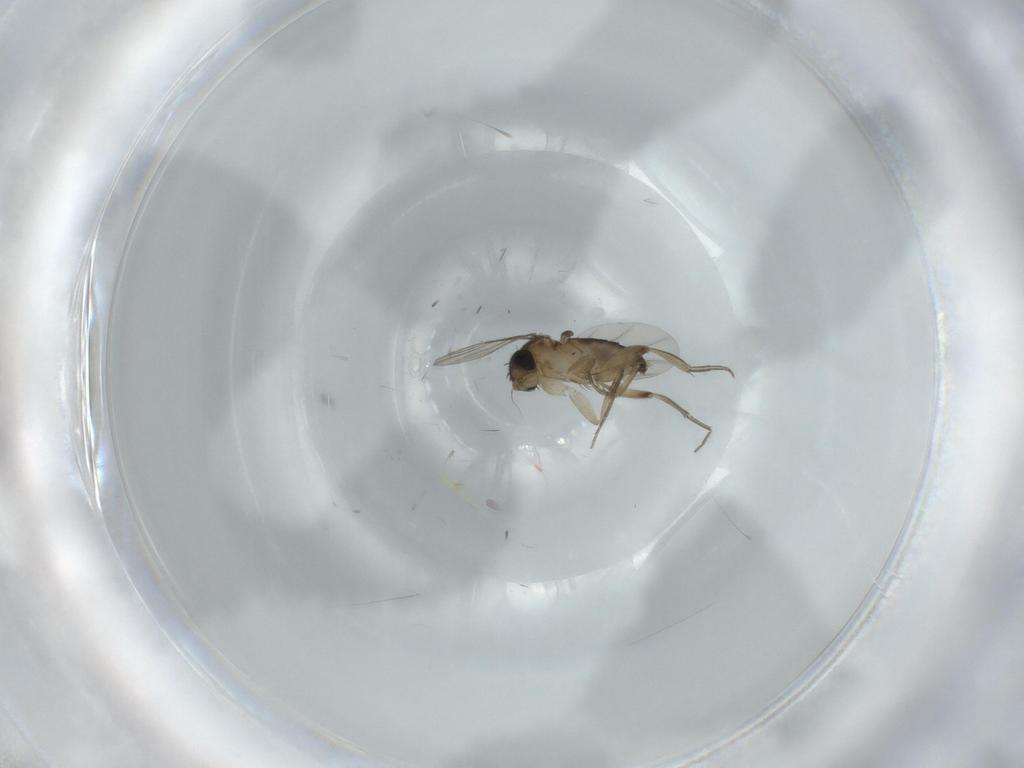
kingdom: Animalia
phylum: Arthropoda
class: Insecta
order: Diptera
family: Phoridae
